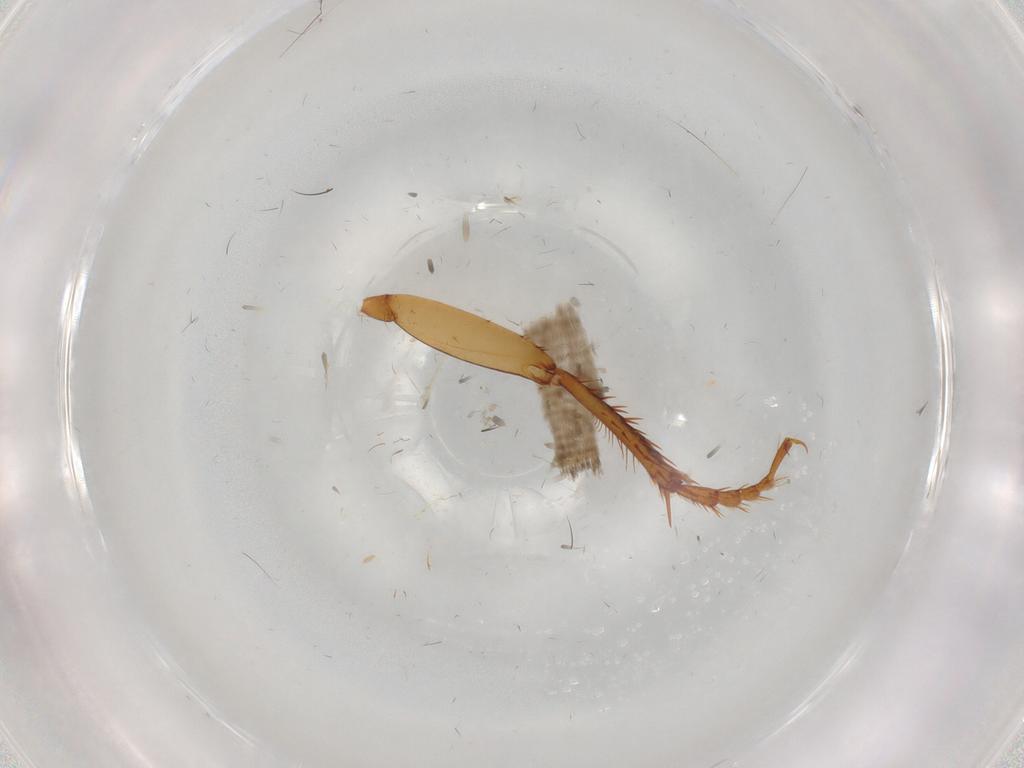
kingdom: Animalia
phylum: Arthropoda
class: Insecta
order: Coleoptera
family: Carabidae
